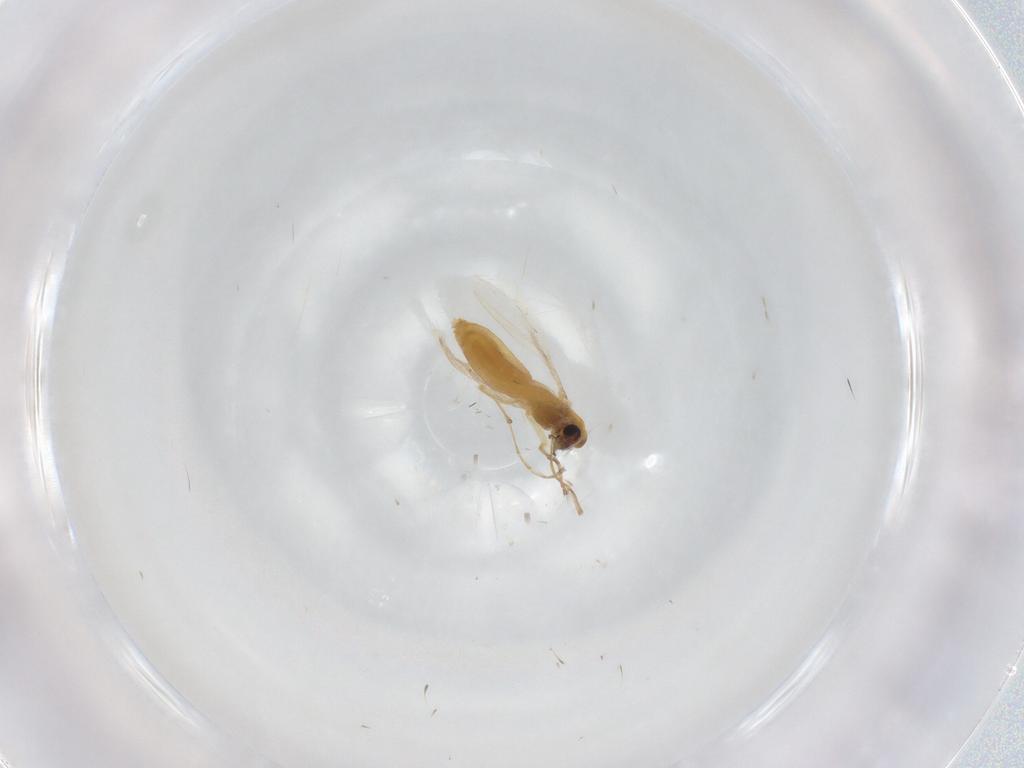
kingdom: Animalia
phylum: Arthropoda
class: Insecta
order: Diptera
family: Chironomidae
